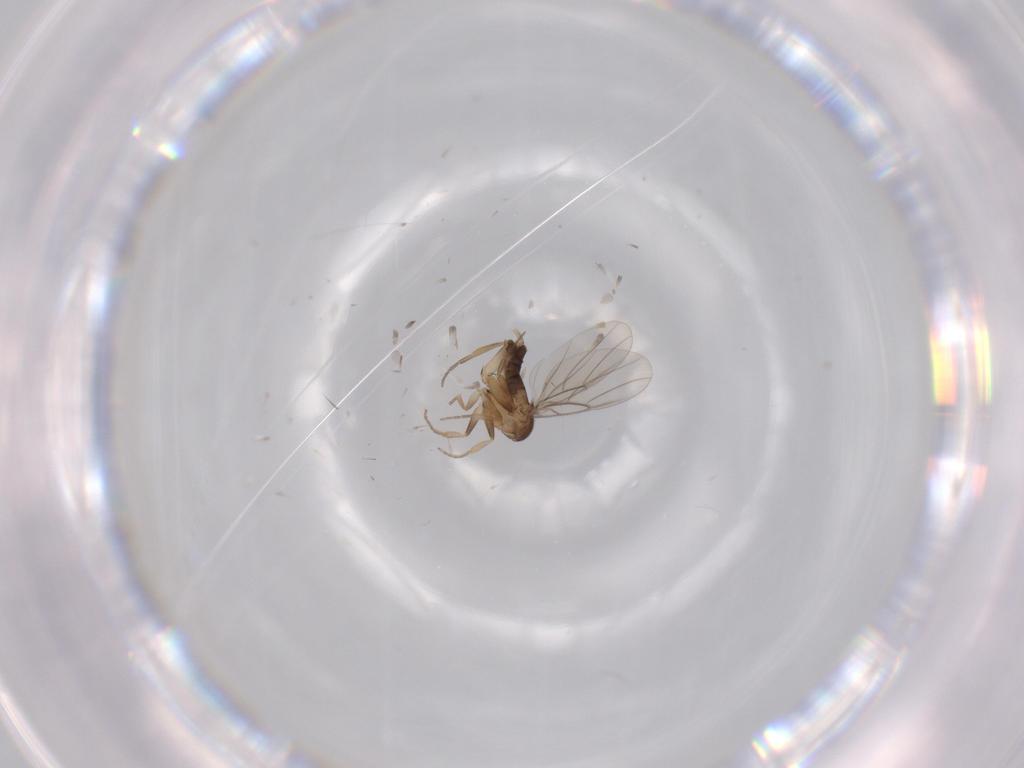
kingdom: Animalia
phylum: Arthropoda
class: Insecta
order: Diptera
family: Phoridae
